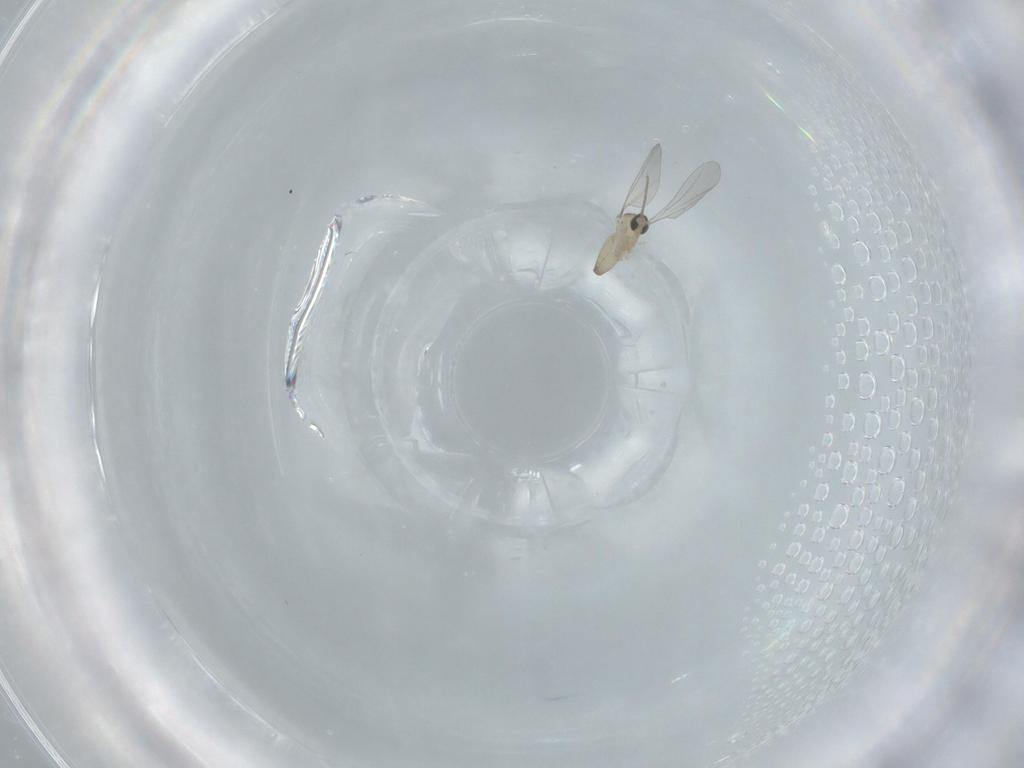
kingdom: Animalia
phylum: Arthropoda
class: Insecta
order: Diptera
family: Cecidomyiidae
